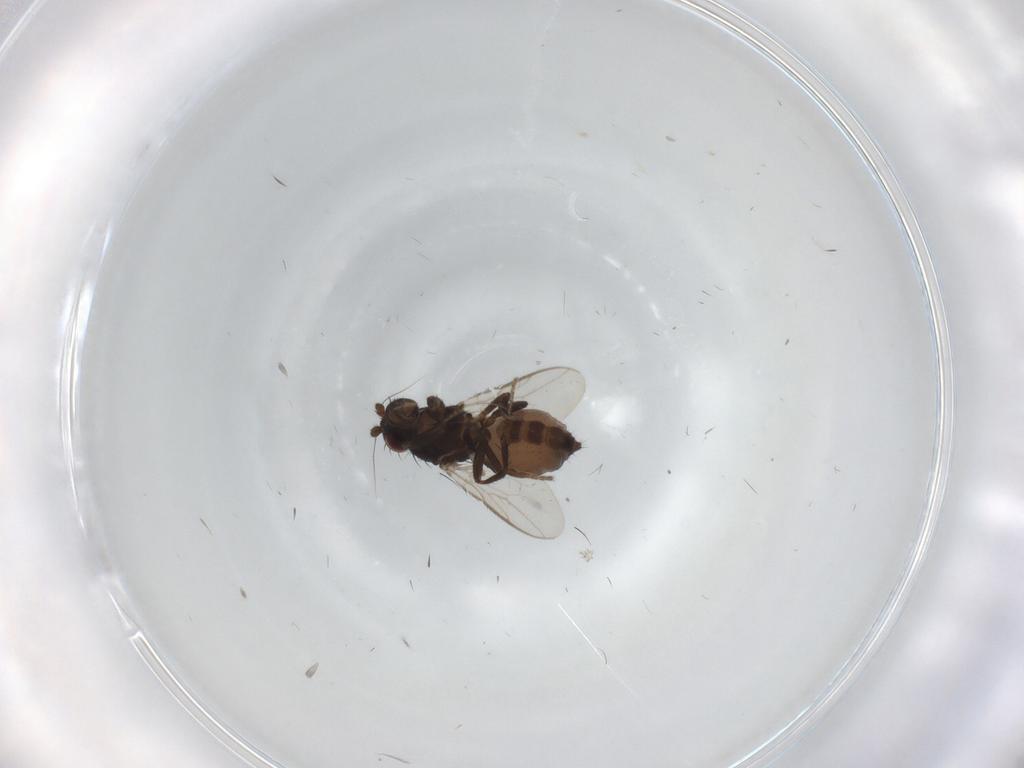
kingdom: Animalia
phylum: Arthropoda
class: Insecta
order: Diptera
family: Sphaeroceridae
